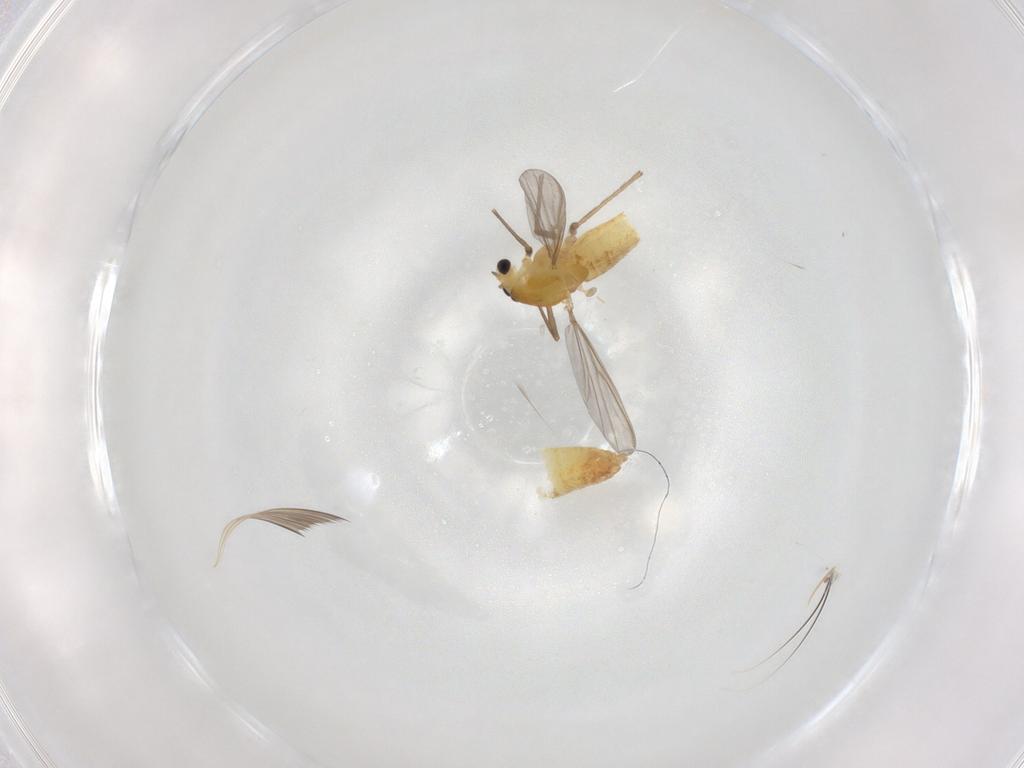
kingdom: Animalia
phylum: Arthropoda
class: Insecta
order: Diptera
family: Chironomidae
